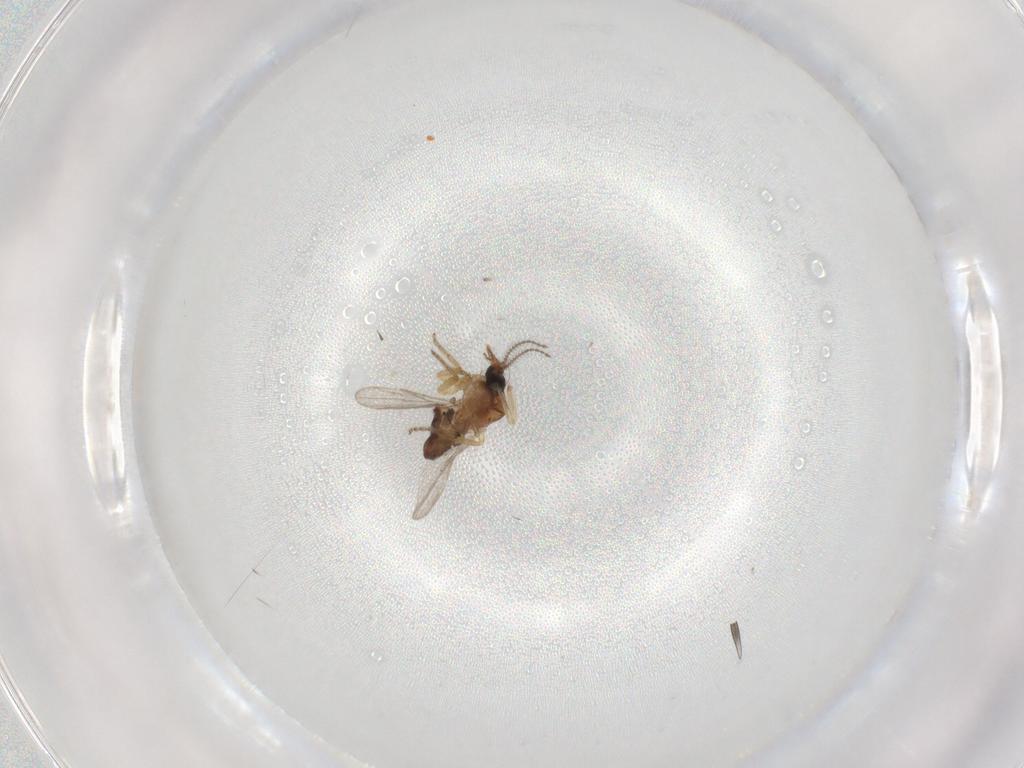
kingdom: Animalia
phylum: Arthropoda
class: Insecta
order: Diptera
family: Ceratopogonidae
